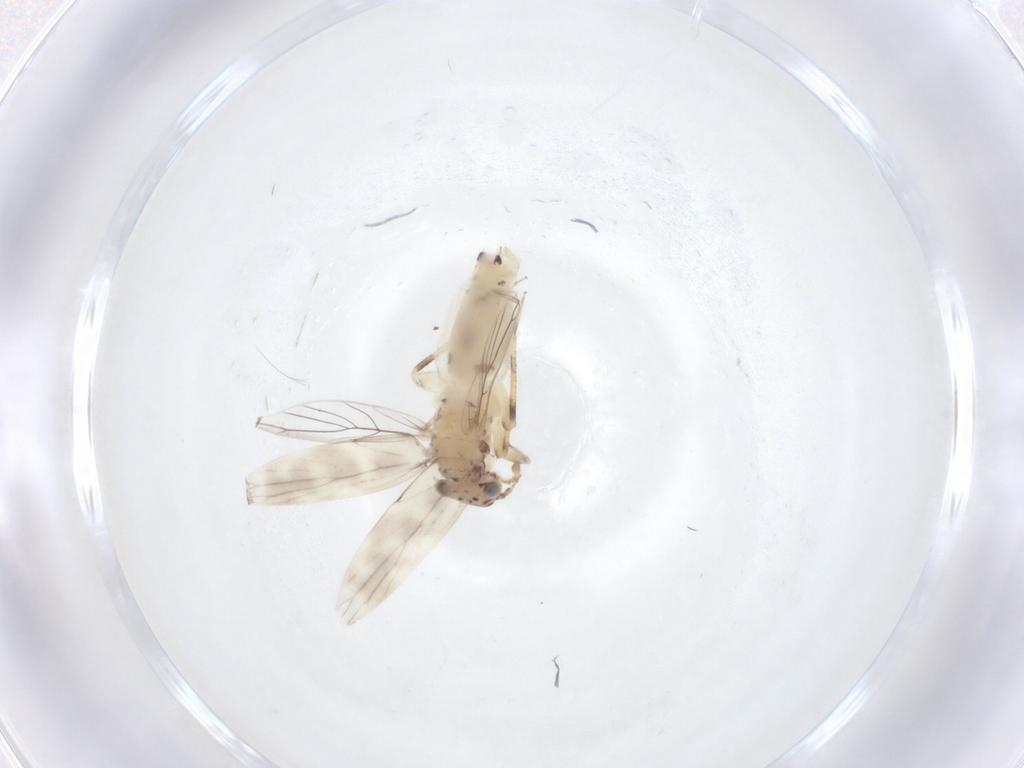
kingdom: Animalia
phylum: Arthropoda
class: Insecta
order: Psocodea
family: Lepidopsocidae
